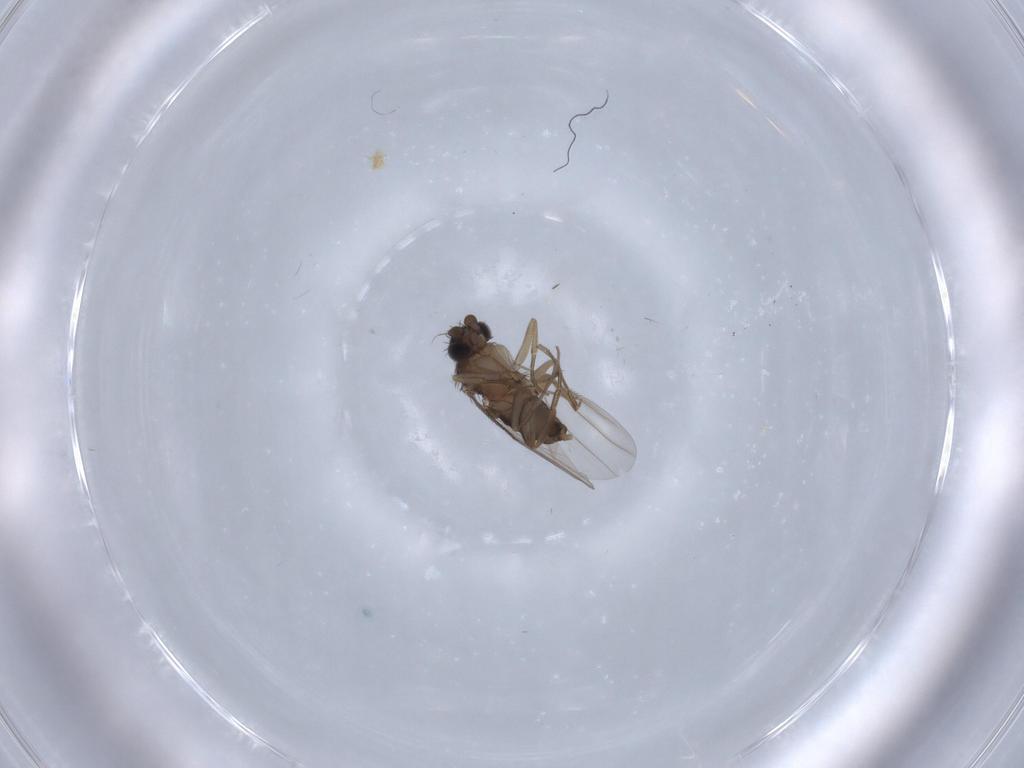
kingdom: Animalia
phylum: Arthropoda
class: Insecta
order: Diptera
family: Phoridae
